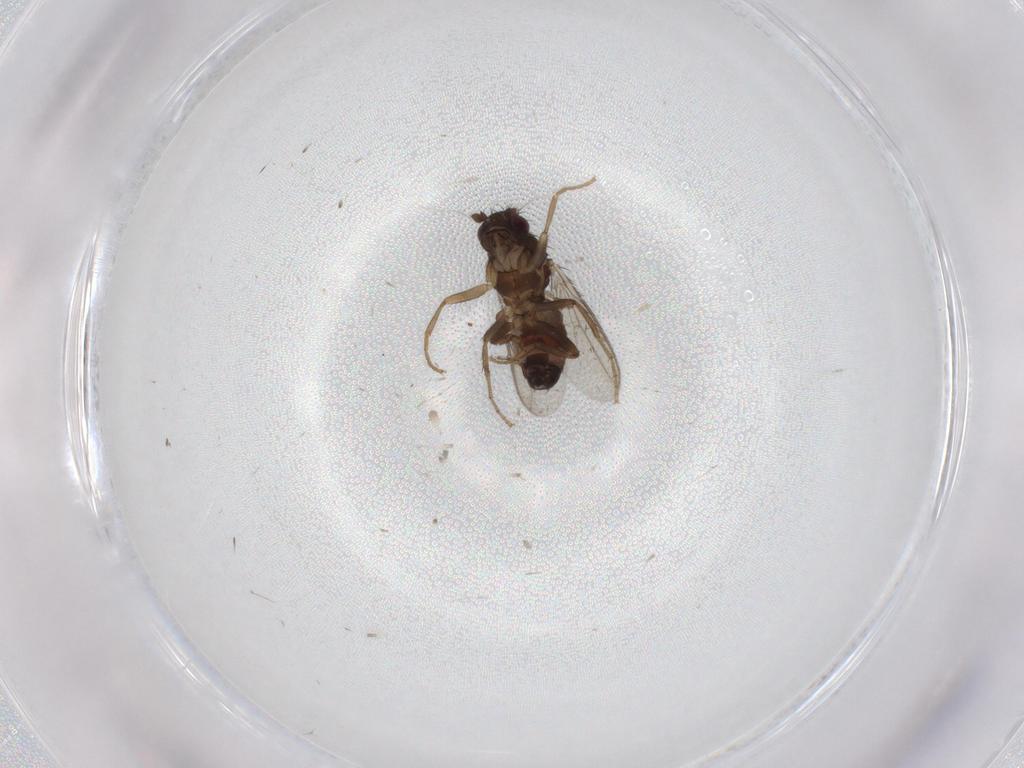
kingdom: Animalia
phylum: Arthropoda
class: Insecta
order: Diptera
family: Sphaeroceridae
